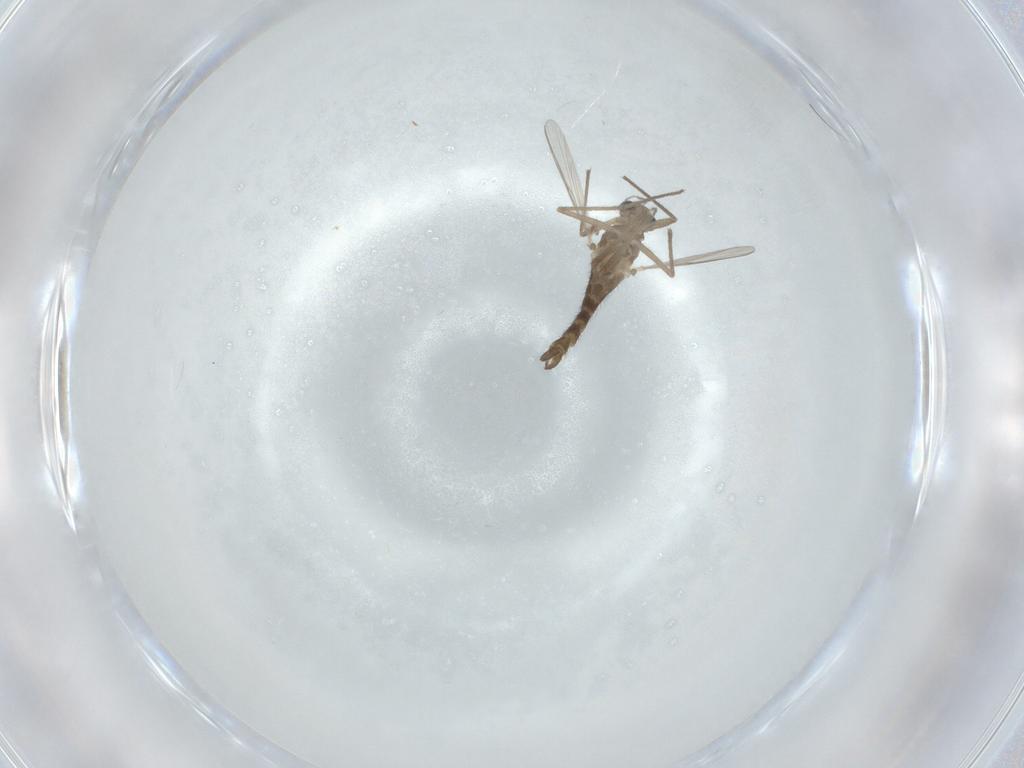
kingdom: Animalia
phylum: Arthropoda
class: Insecta
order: Diptera
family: Chironomidae
